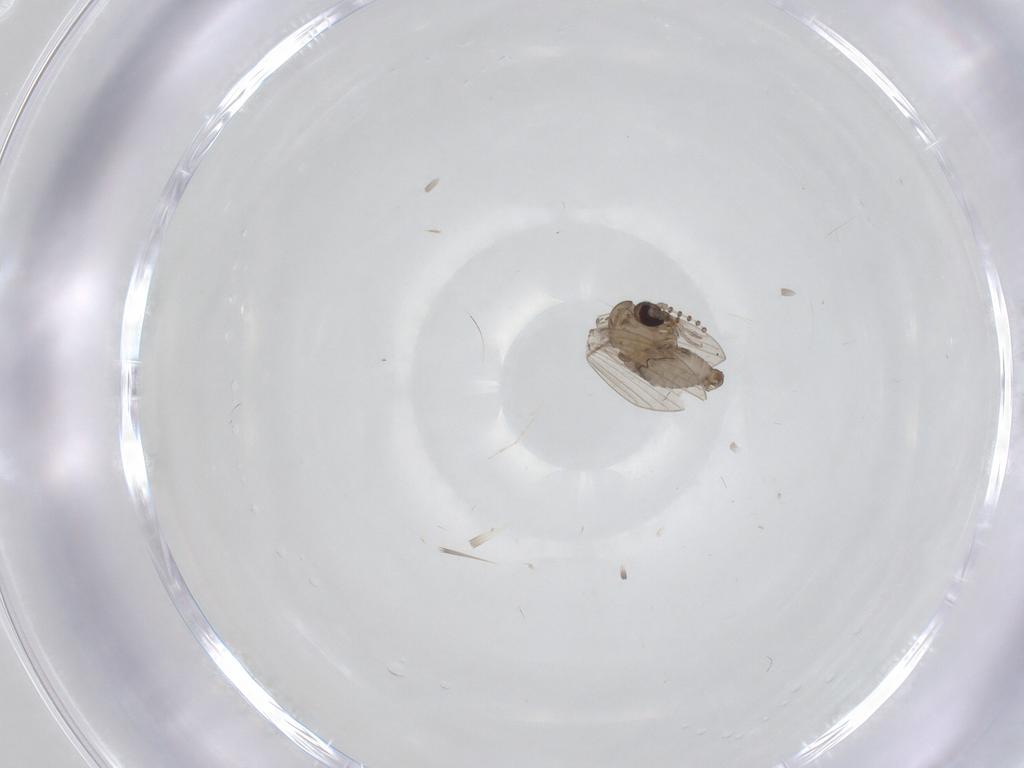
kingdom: Animalia
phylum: Arthropoda
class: Insecta
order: Diptera
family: Psychodidae
